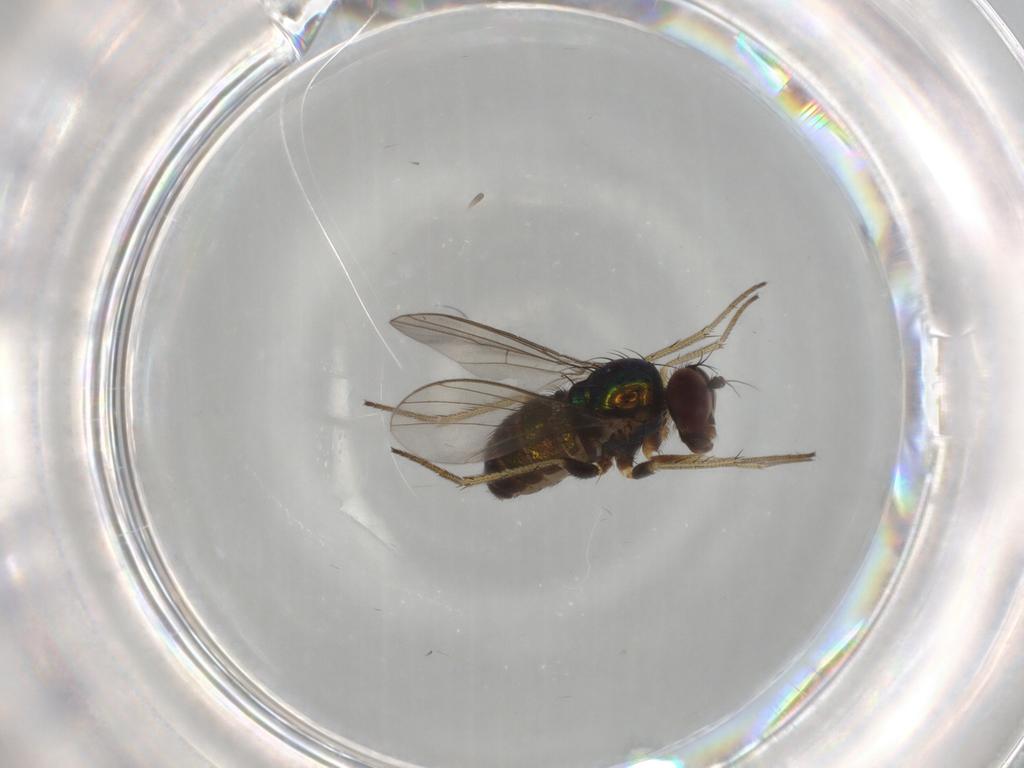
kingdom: Animalia
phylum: Arthropoda
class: Insecta
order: Diptera
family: Dolichopodidae
